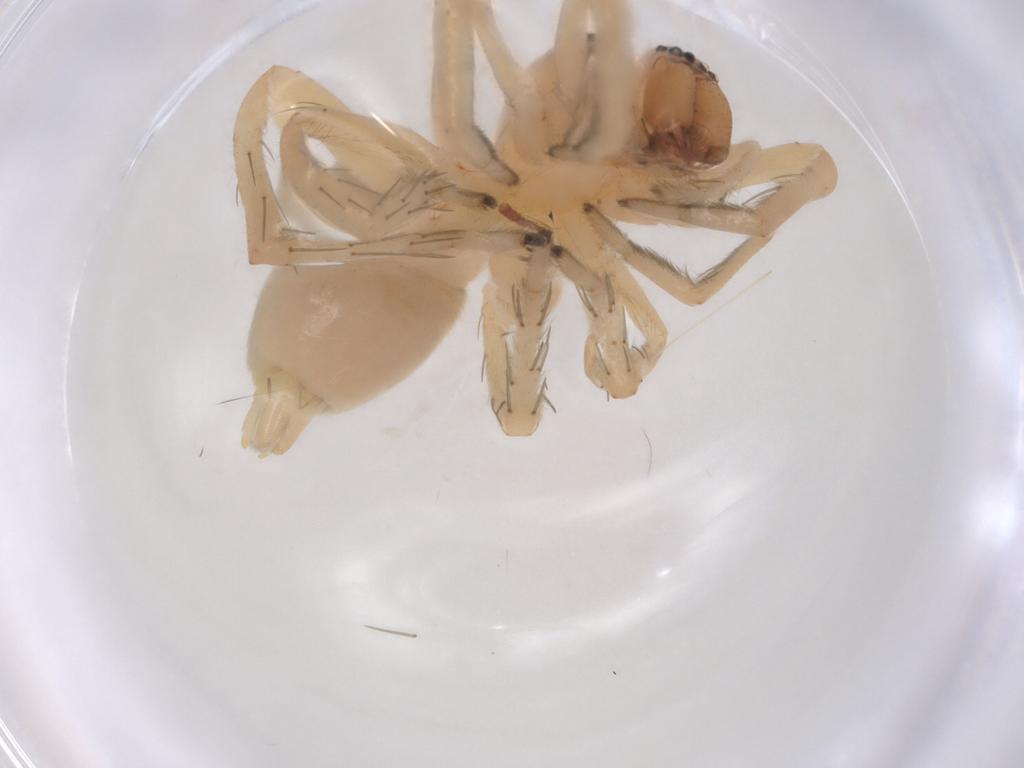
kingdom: Animalia
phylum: Arthropoda
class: Arachnida
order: Araneae
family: Clubionidae
